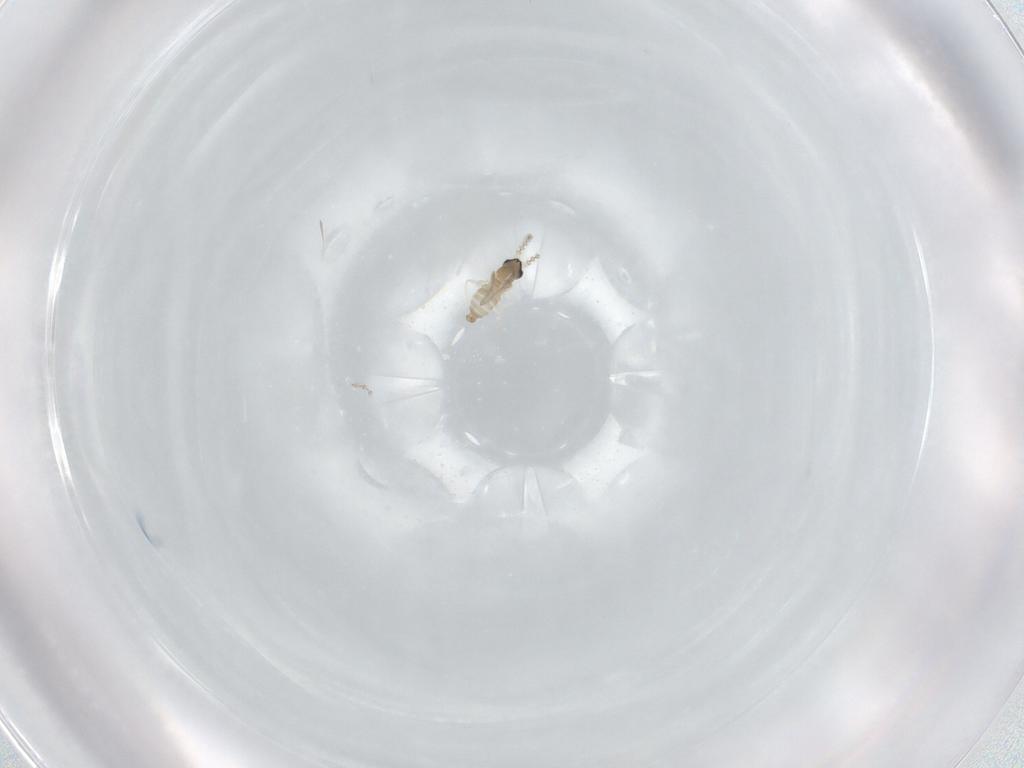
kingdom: Animalia
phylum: Arthropoda
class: Insecta
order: Diptera
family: Cecidomyiidae
